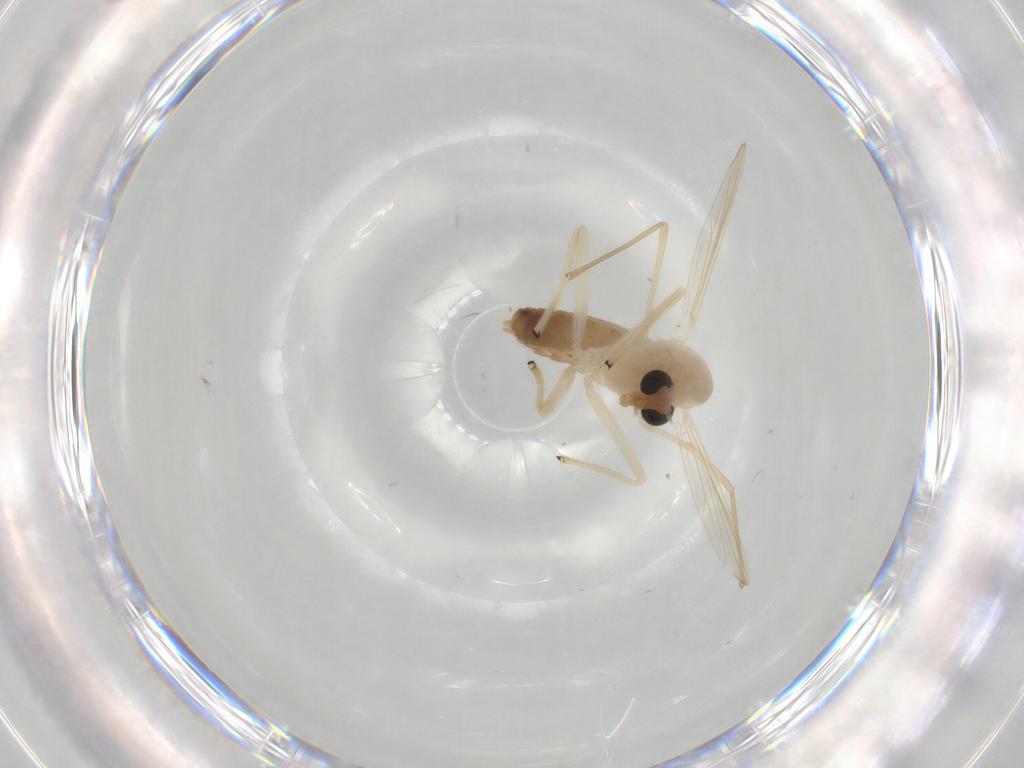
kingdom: Animalia
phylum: Arthropoda
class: Insecta
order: Diptera
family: Chironomidae
